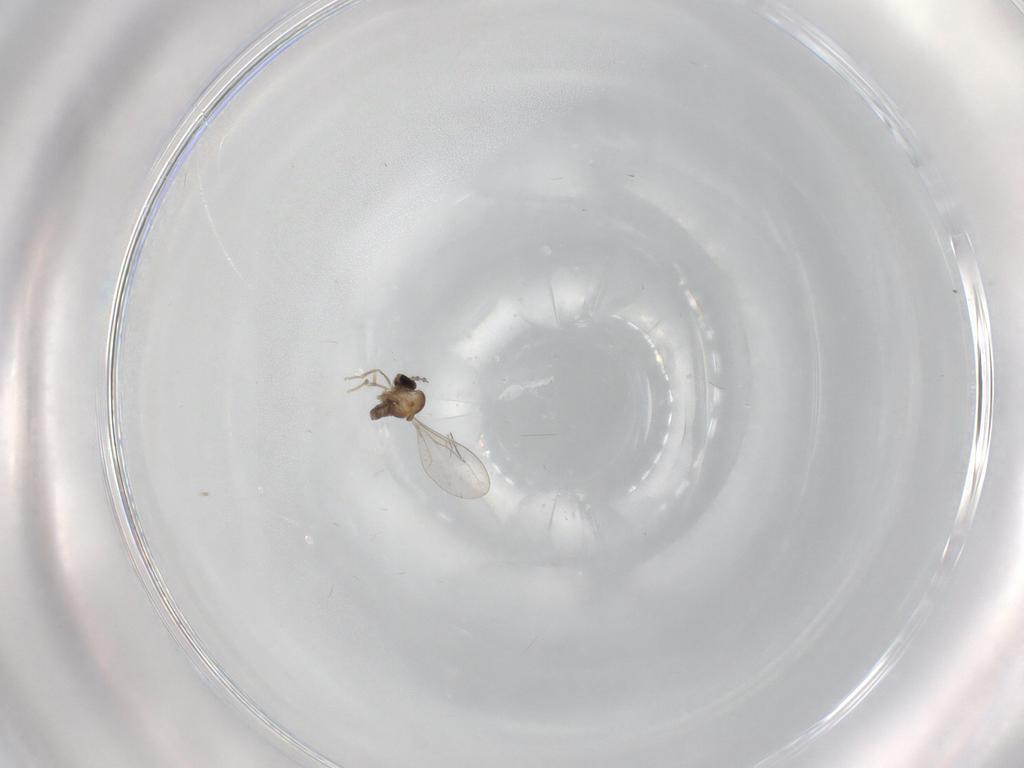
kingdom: Animalia
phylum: Arthropoda
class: Insecta
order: Diptera
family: Cecidomyiidae
